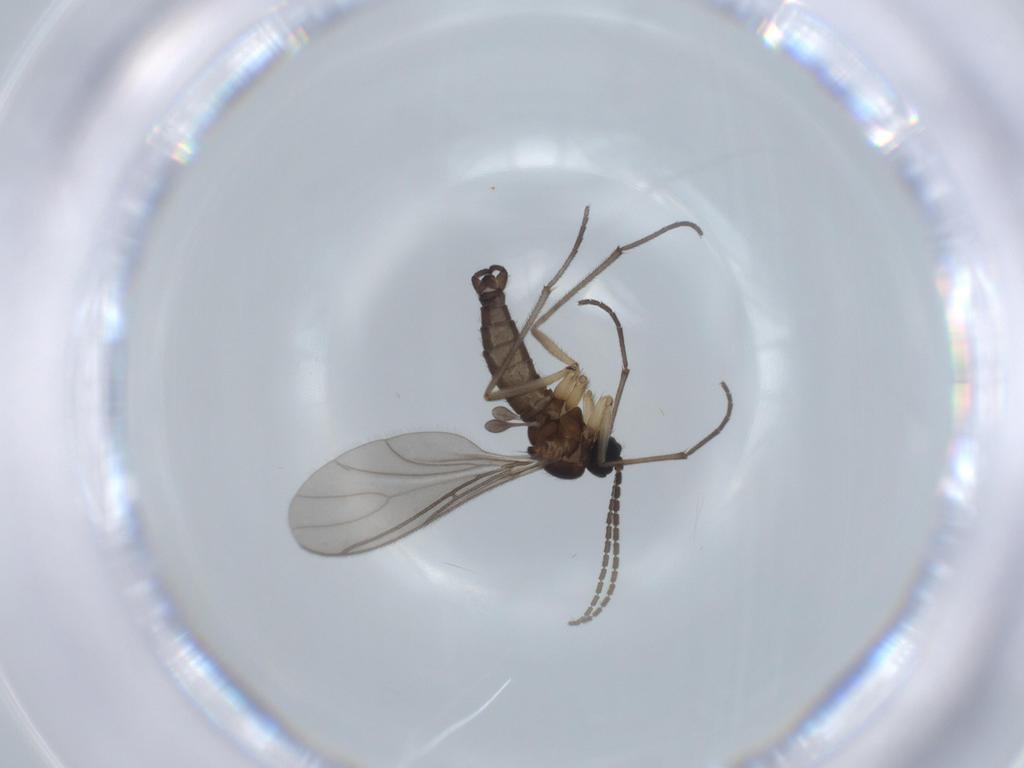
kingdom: Animalia
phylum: Arthropoda
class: Insecta
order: Diptera
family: Sciaridae
